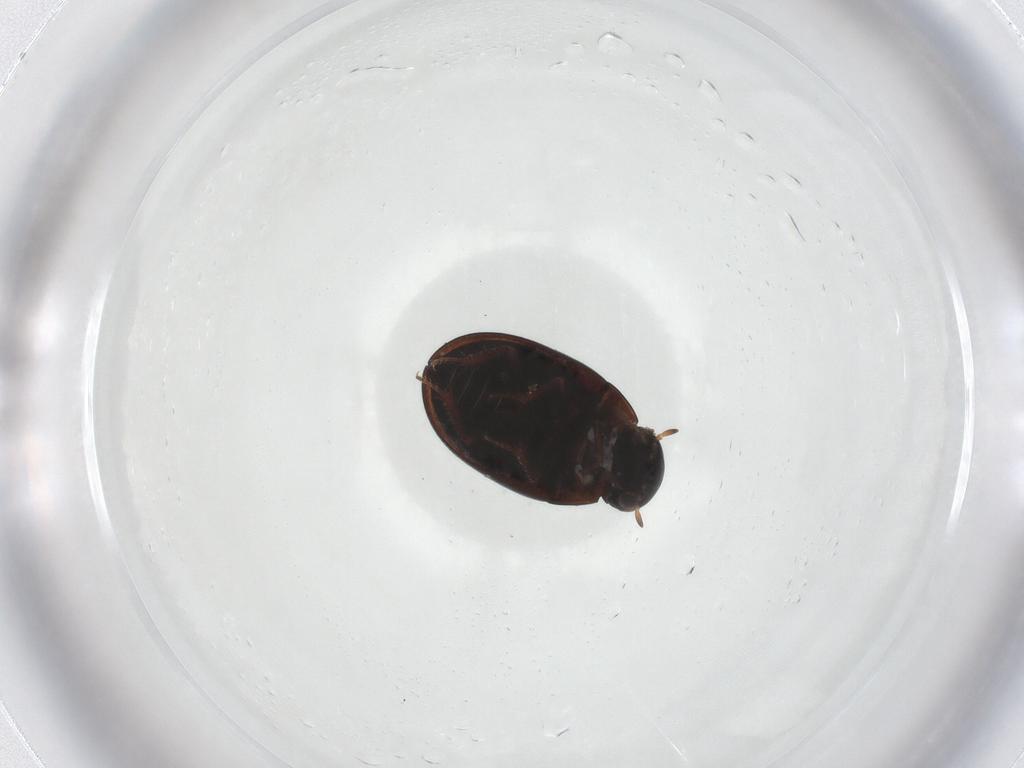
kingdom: Animalia
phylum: Arthropoda
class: Insecta
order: Coleoptera
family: Hydrophilidae
